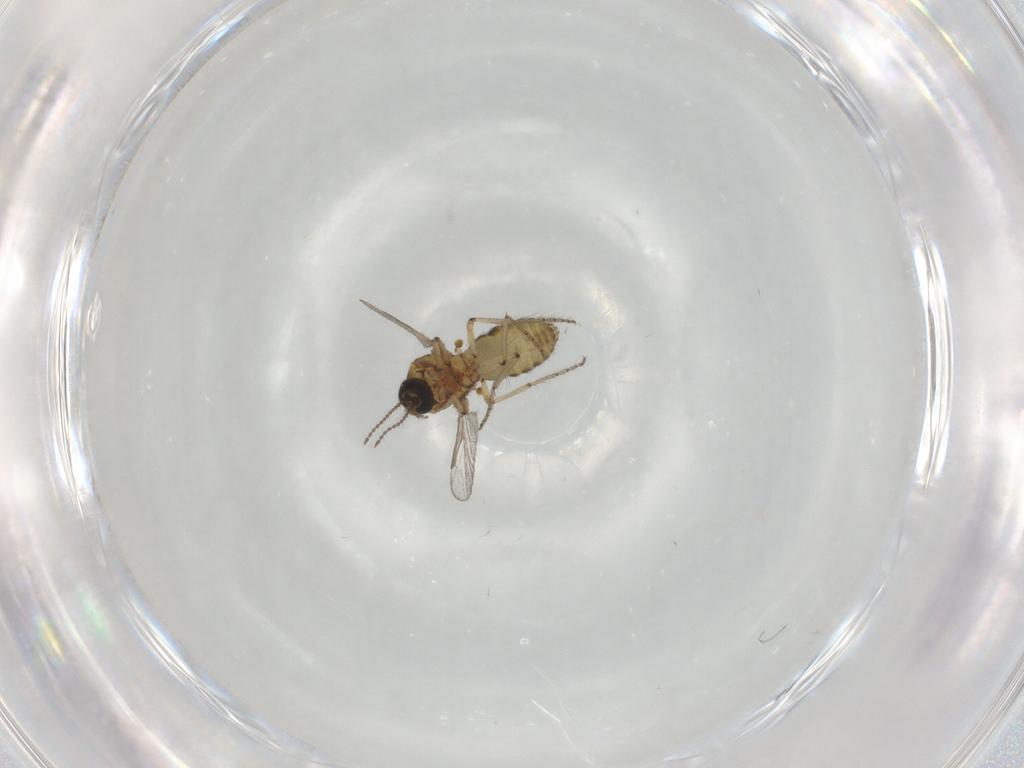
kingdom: Animalia
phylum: Arthropoda
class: Insecta
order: Diptera
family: Ceratopogonidae
